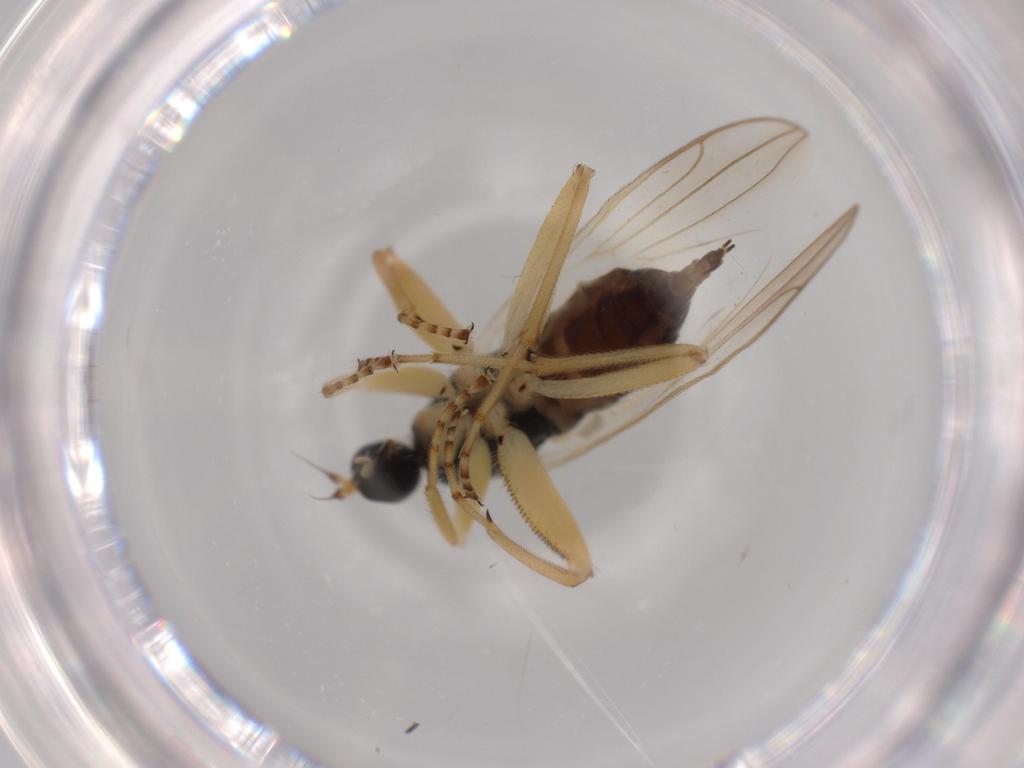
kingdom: Animalia
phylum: Arthropoda
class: Insecta
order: Diptera
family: Hybotidae
